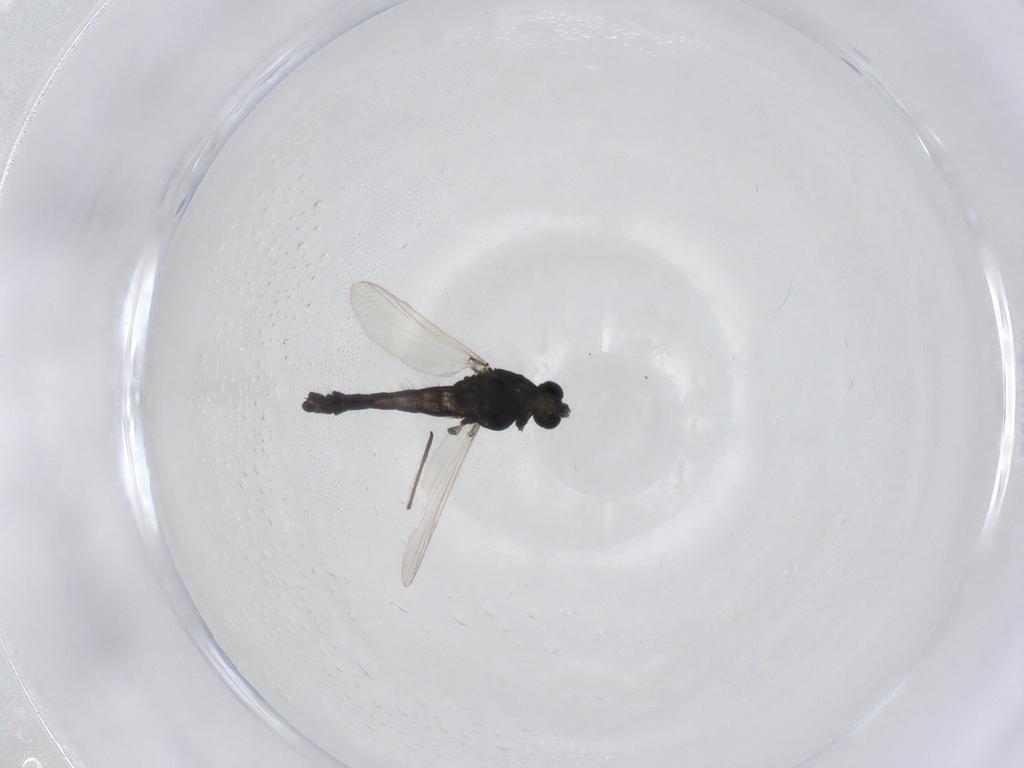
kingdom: Animalia
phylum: Arthropoda
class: Insecta
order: Diptera
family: Chironomidae
